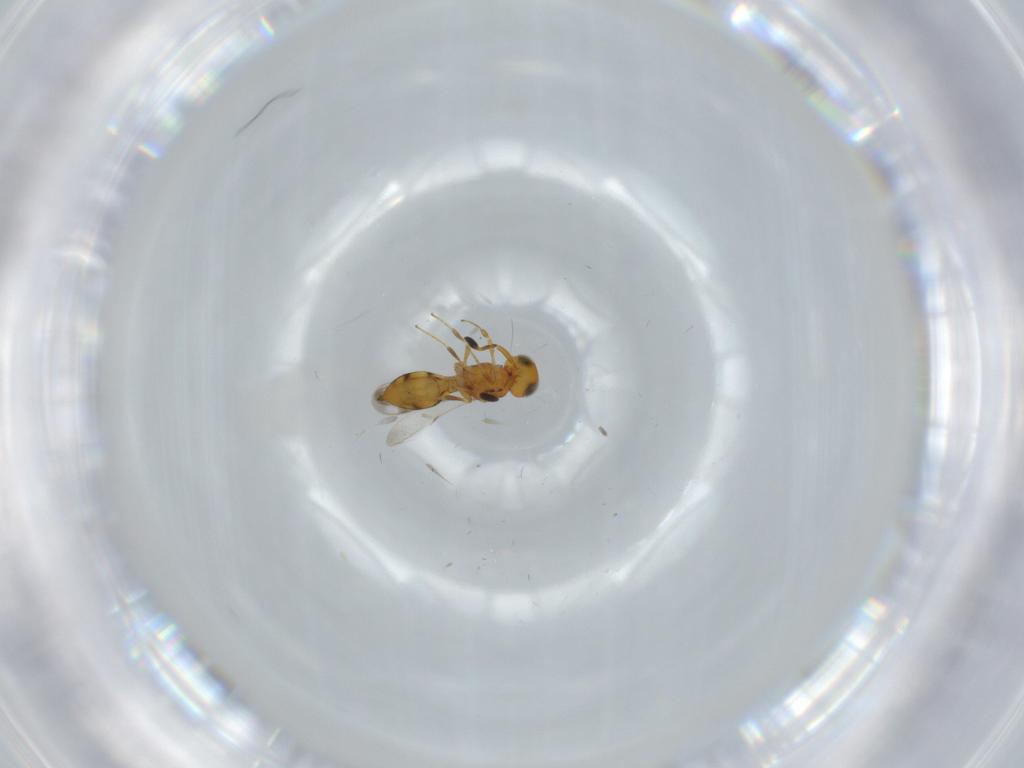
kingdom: Animalia
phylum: Arthropoda
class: Insecta
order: Hymenoptera
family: Scelionidae
